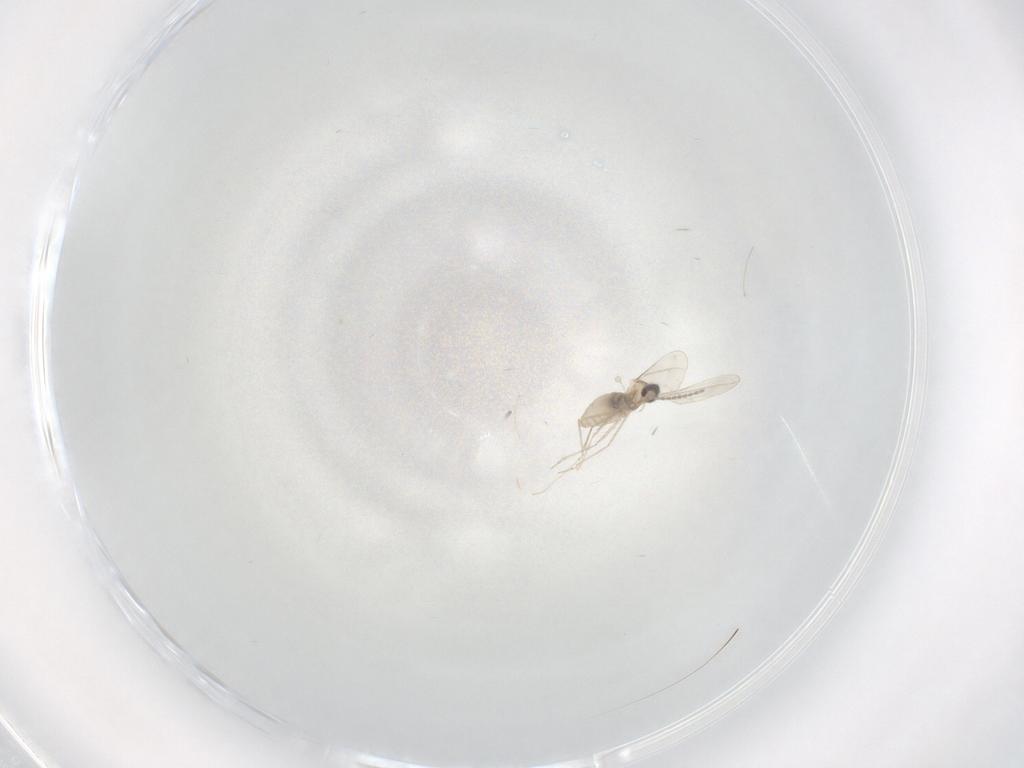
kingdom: Animalia
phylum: Arthropoda
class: Insecta
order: Diptera
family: Cecidomyiidae
